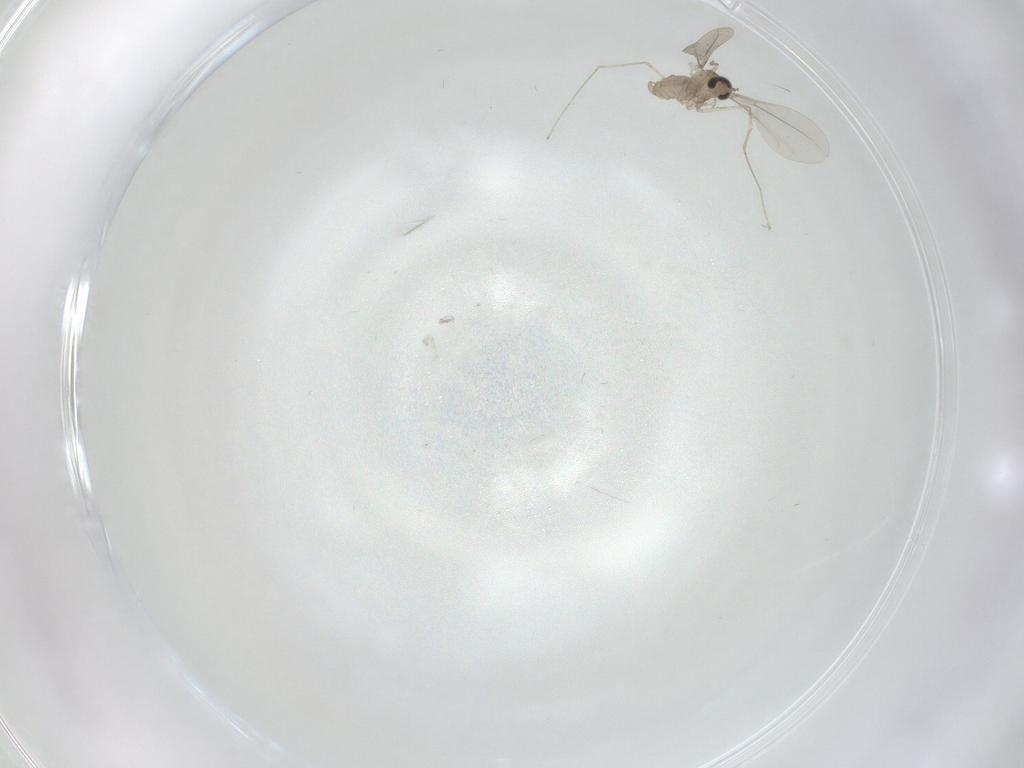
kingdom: Animalia
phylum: Arthropoda
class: Insecta
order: Diptera
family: Cecidomyiidae
